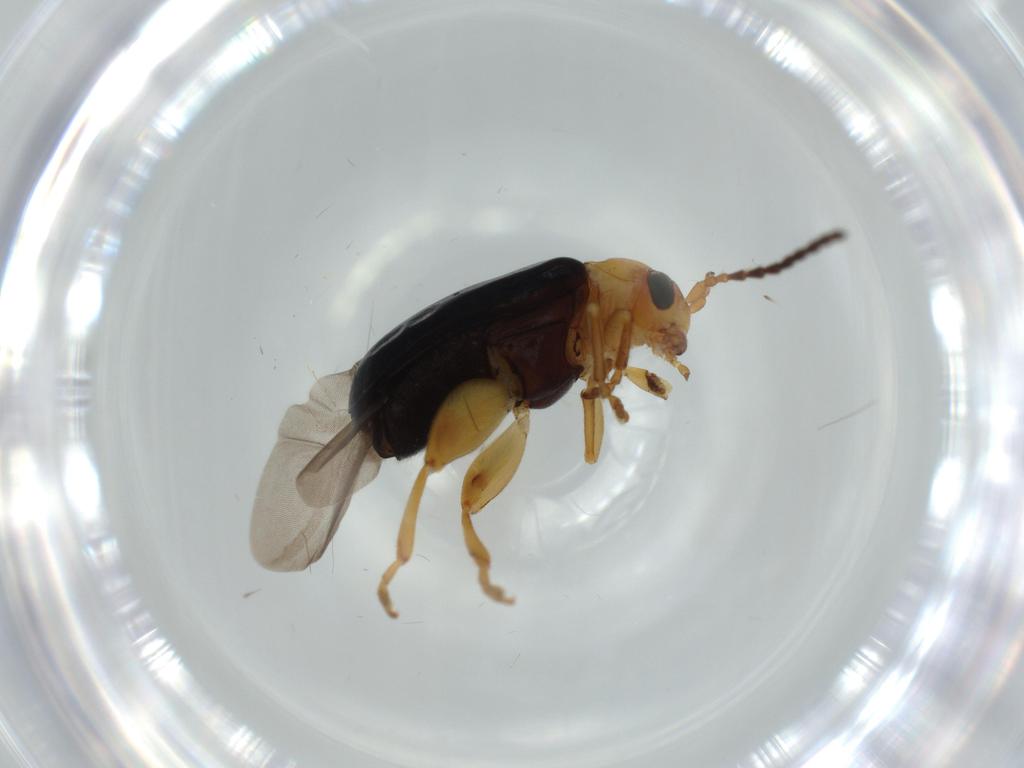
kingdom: Animalia
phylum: Arthropoda
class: Insecta
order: Coleoptera
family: Chrysomelidae
